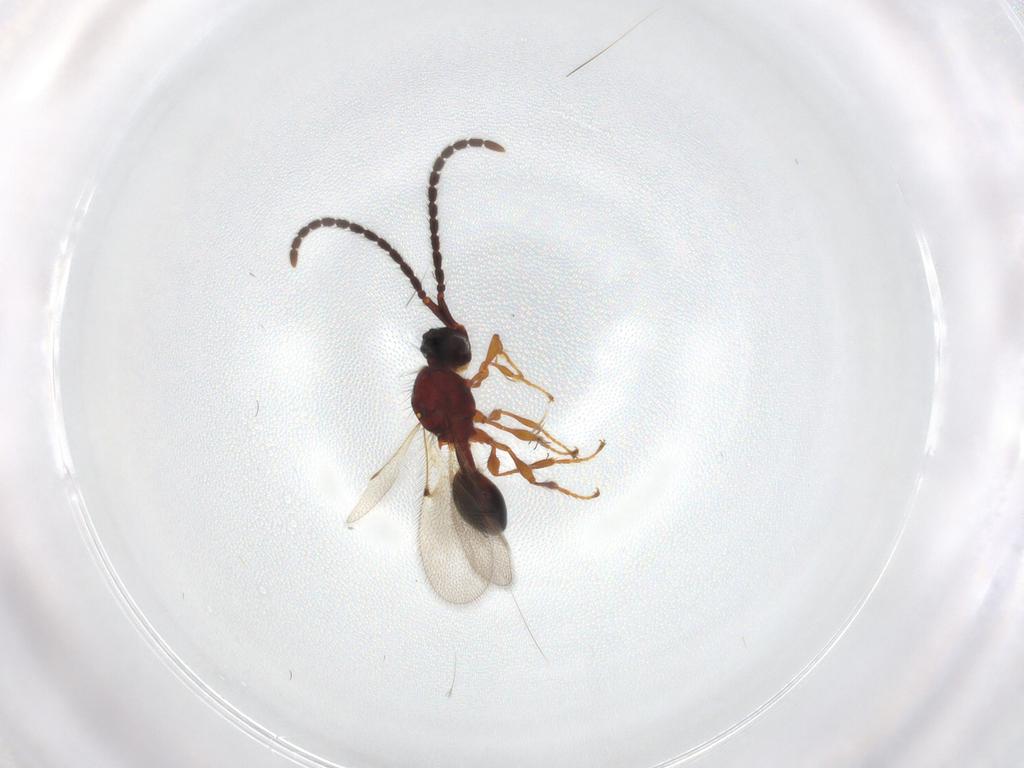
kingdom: Animalia
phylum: Arthropoda
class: Insecta
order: Hymenoptera
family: Diapriidae
